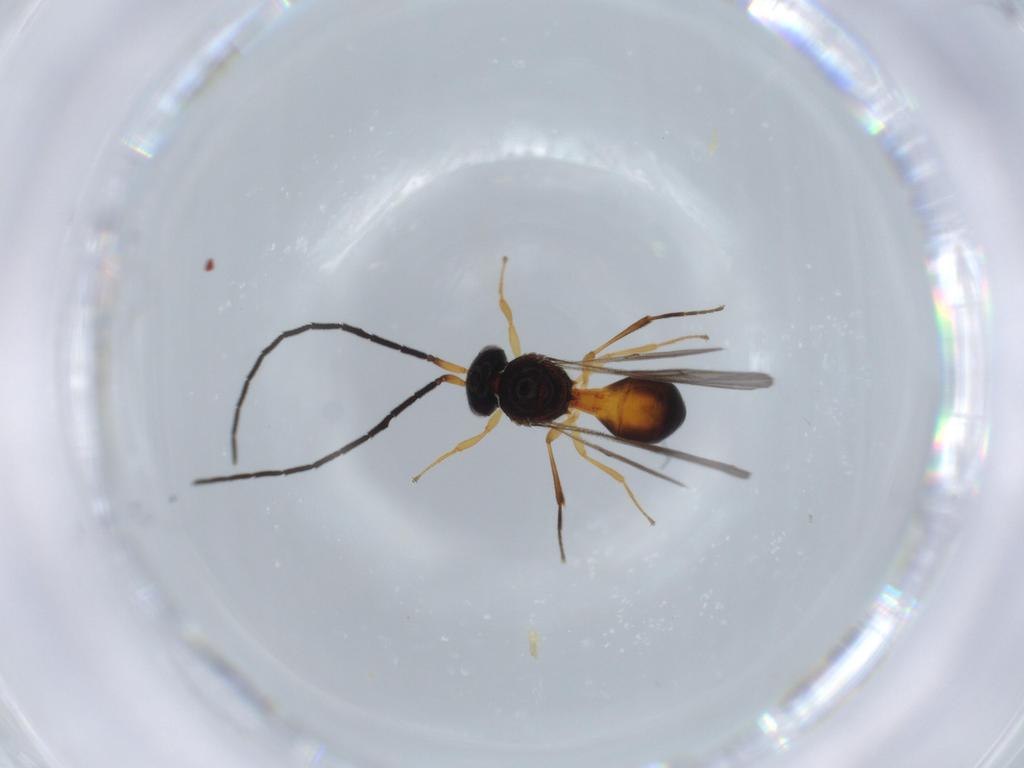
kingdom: Animalia
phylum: Arthropoda
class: Insecta
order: Hymenoptera
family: Scelionidae
